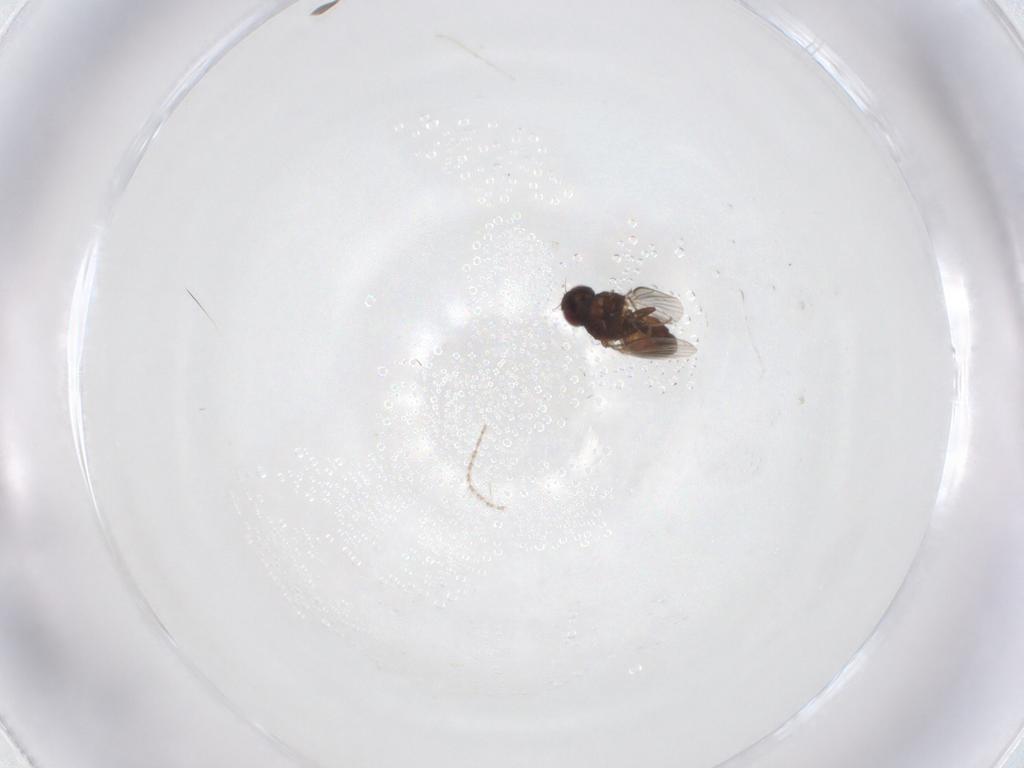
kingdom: Animalia
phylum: Arthropoda
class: Insecta
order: Diptera
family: Carnidae
